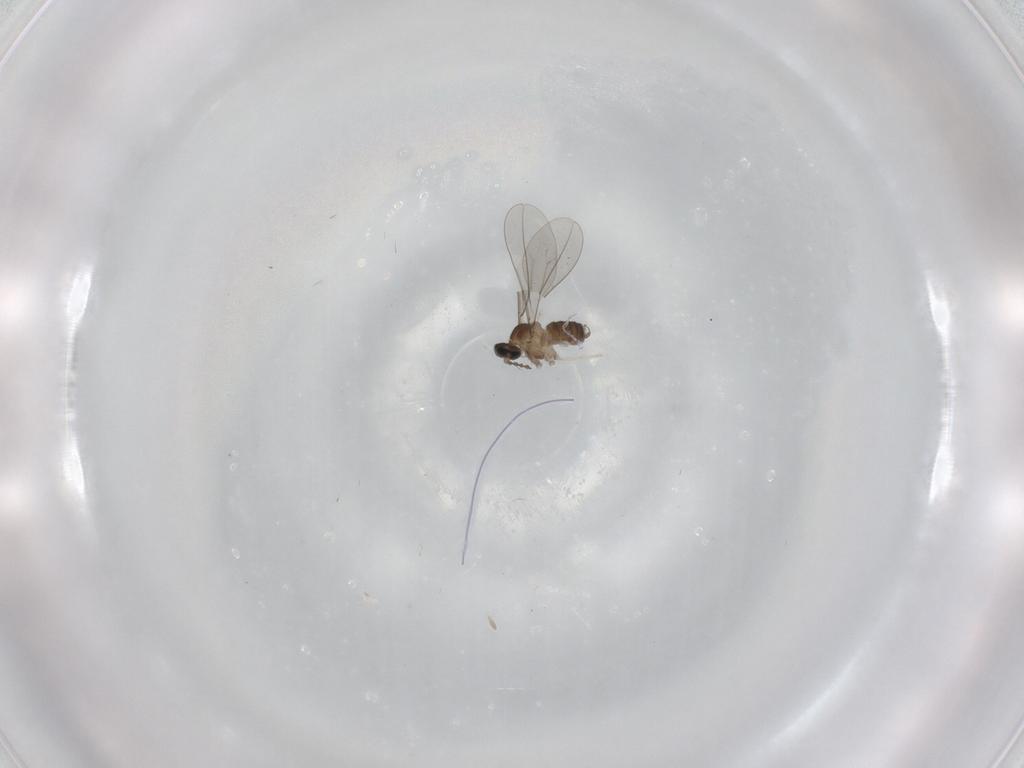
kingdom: Animalia
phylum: Arthropoda
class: Insecta
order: Diptera
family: Cecidomyiidae
